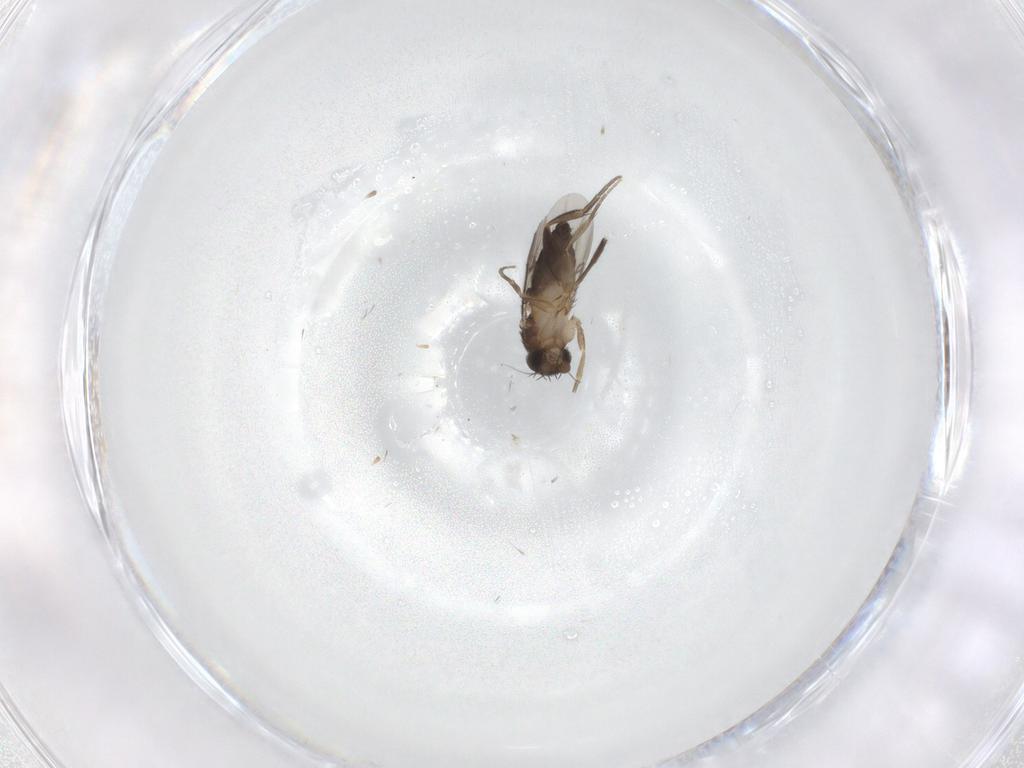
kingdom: Animalia
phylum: Arthropoda
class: Insecta
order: Diptera
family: Phoridae
